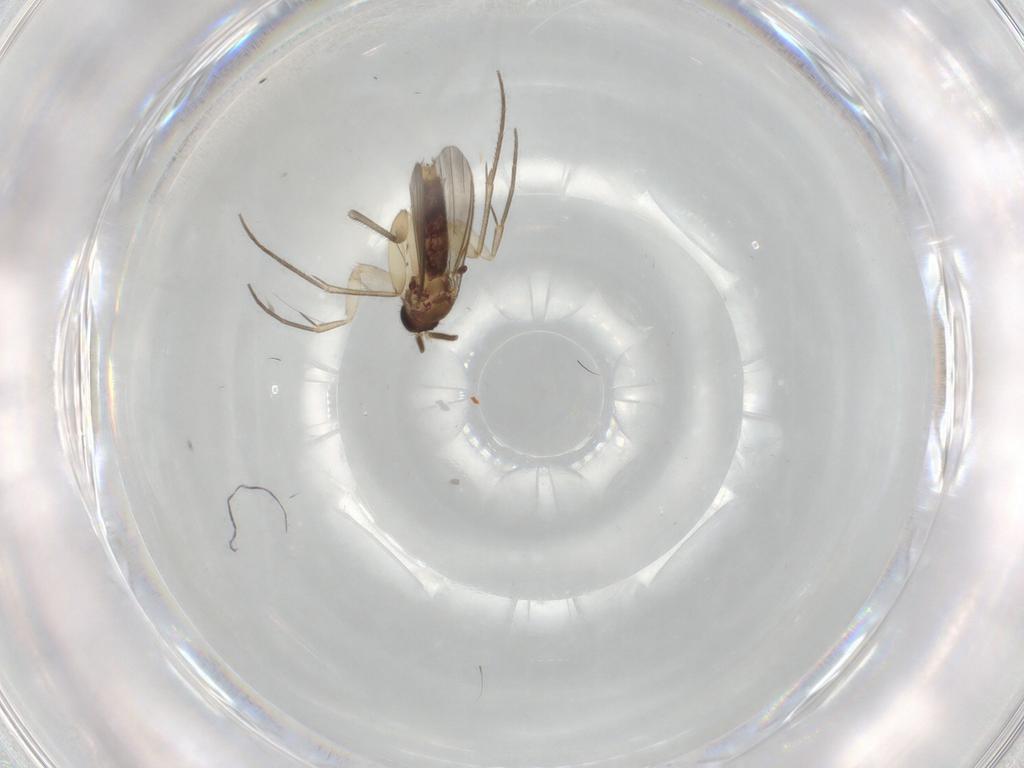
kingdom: Animalia
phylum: Arthropoda
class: Insecta
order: Diptera
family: Mycetophilidae
